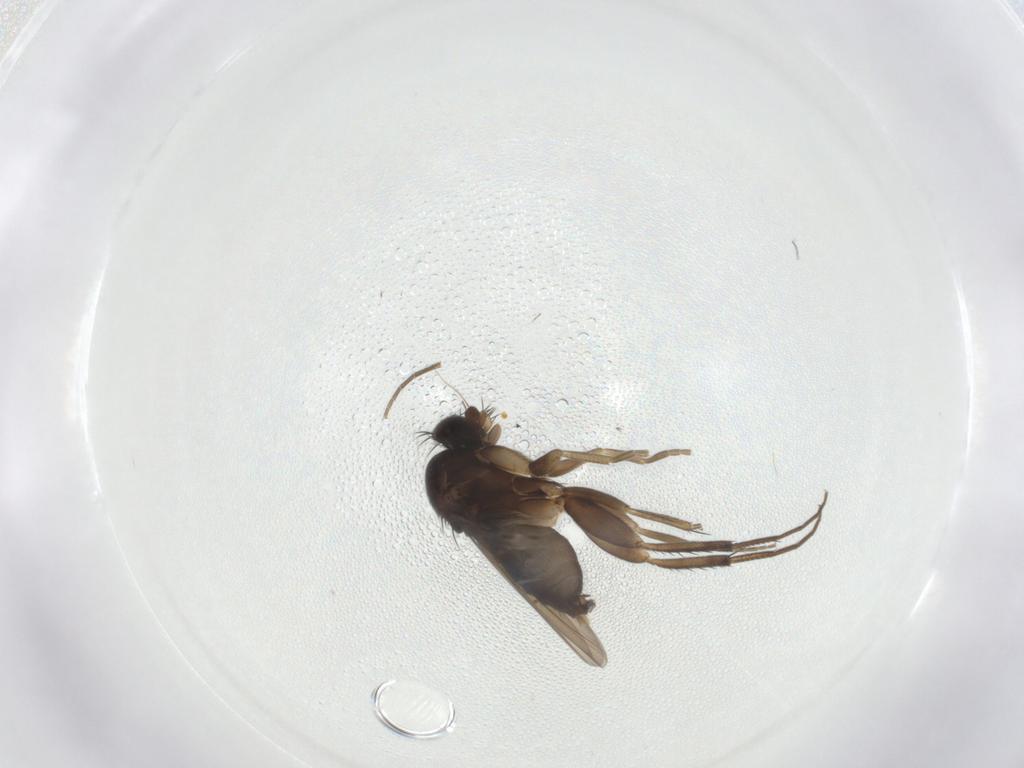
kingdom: Animalia
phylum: Arthropoda
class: Insecta
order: Diptera
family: Phoridae
